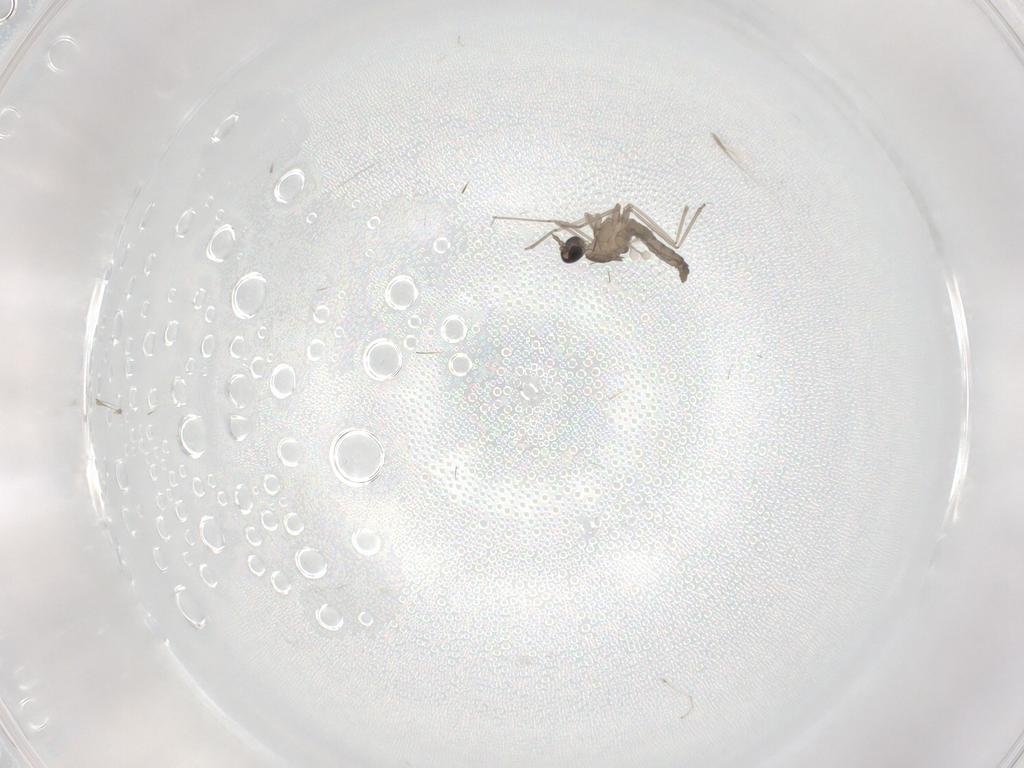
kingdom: Animalia
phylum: Arthropoda
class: Insecta
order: Diptera
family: Cecidomyiidae
